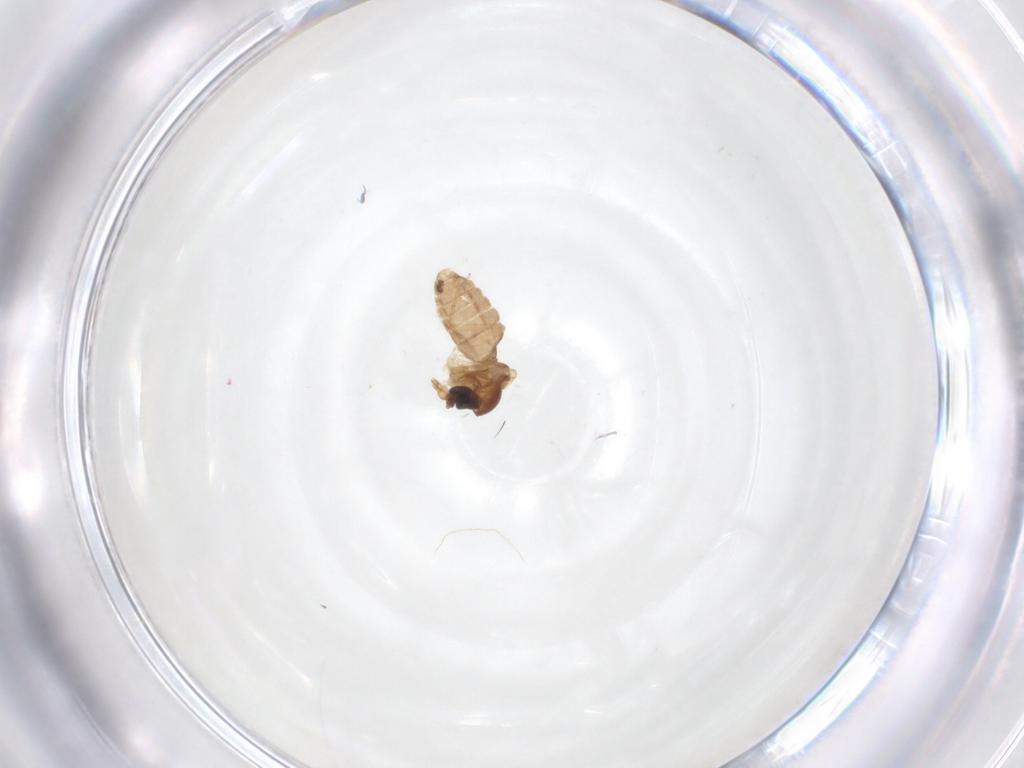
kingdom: Animalia
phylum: Arthropoda
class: Insecta
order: Diptera
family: Ceratopogonidae
